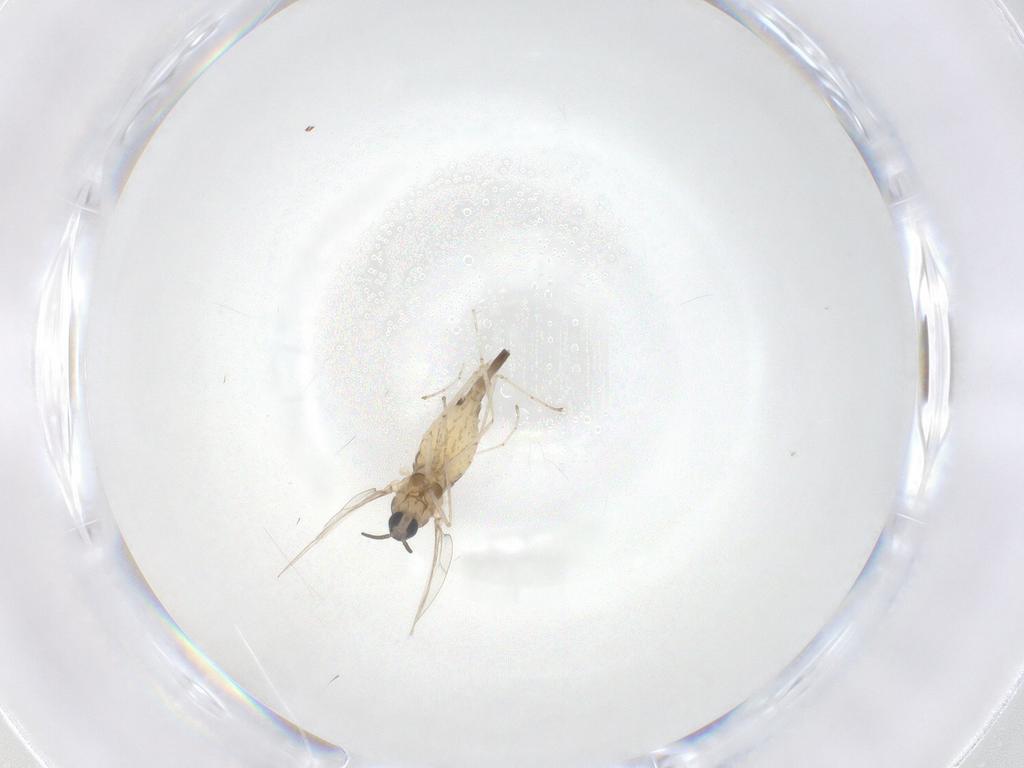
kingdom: Animalia
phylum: Arthropoda
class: Insecta
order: Diptera
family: Cecidomyiidae
